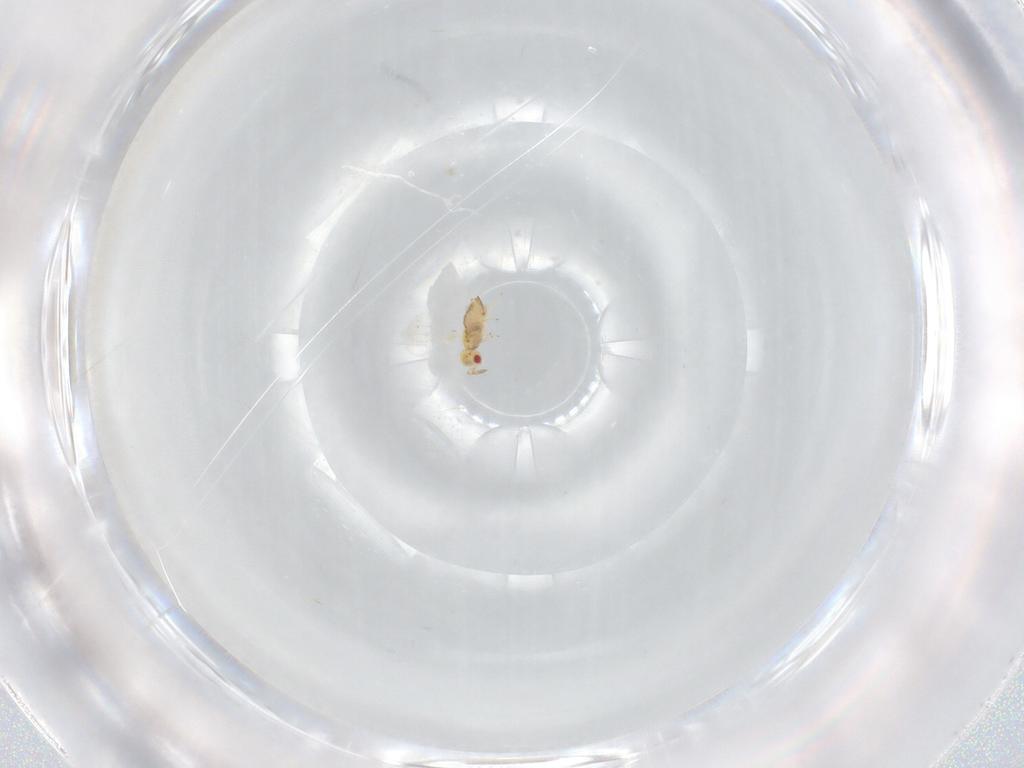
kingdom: Animalia
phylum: Arthropoda
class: Insecta
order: Hymenoptera
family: Trichogrammatidae
